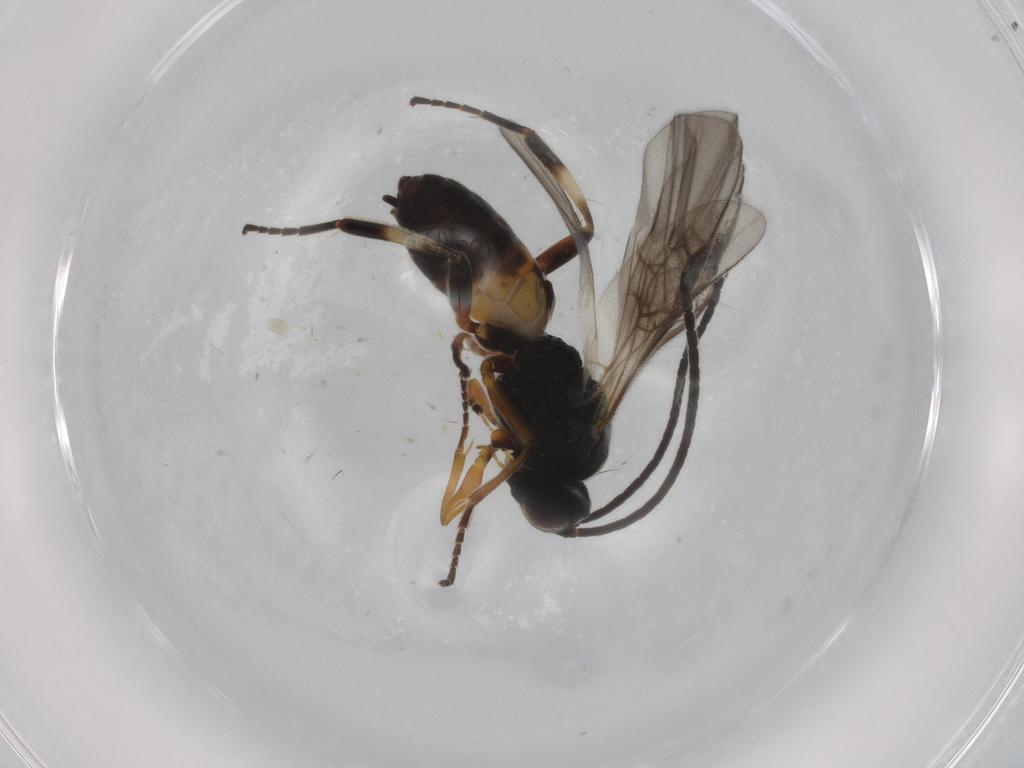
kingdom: Animalia
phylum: Arthropoda
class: Insecta
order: Hymenoptera
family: Braconidae
